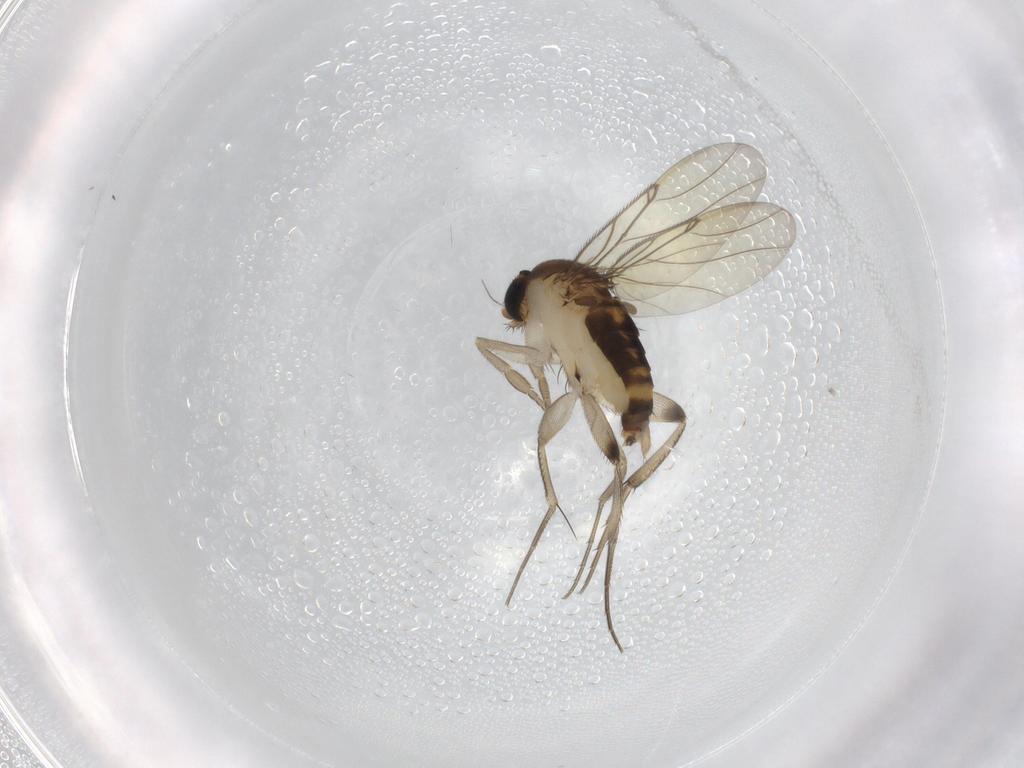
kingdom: Animalia
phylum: Arthropoda
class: Insecta
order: Diptera
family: Phoridae
